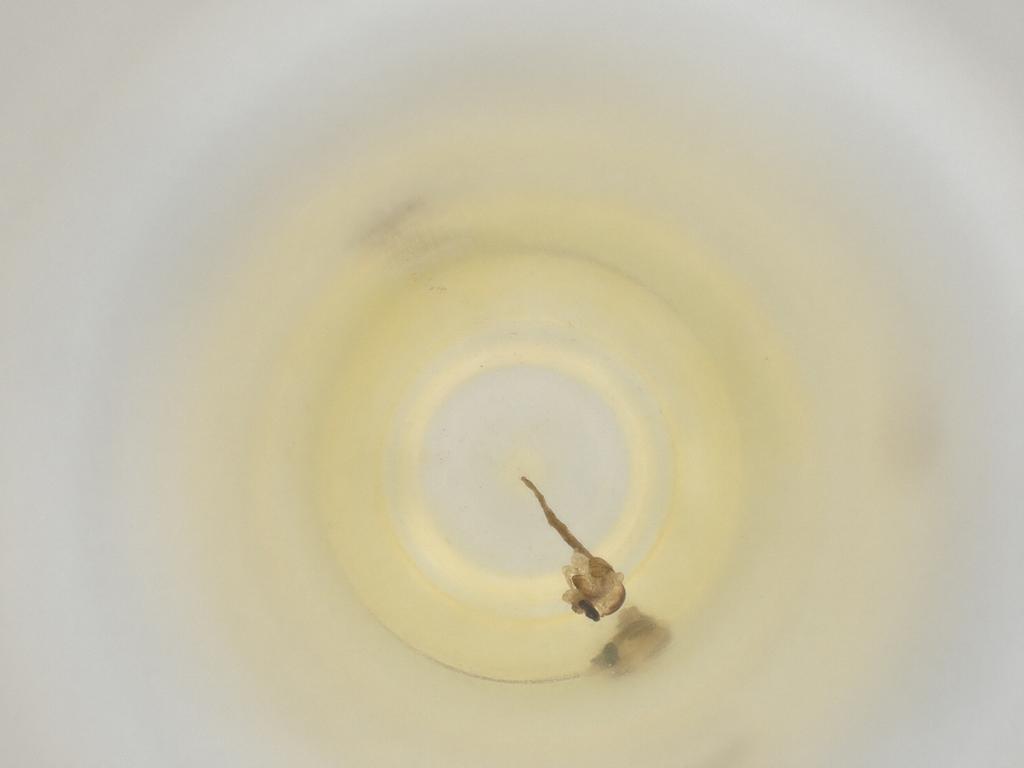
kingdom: Animalia
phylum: Arthropoda
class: Insecta
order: Diptera
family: Cecidomyiidae
